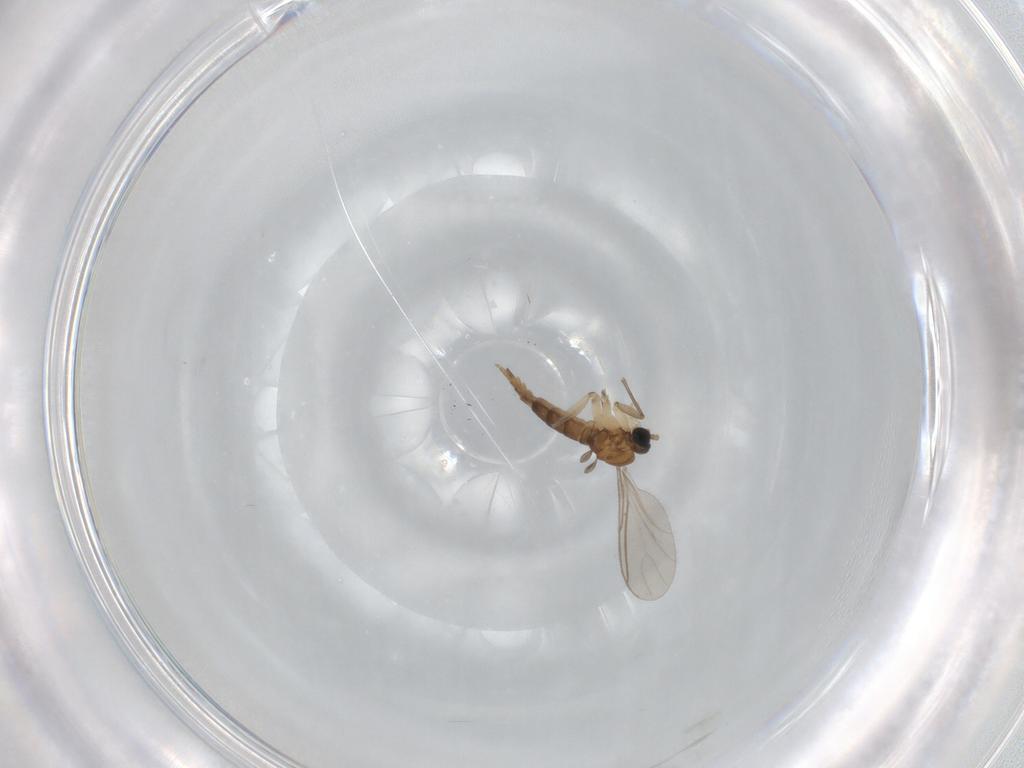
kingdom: Animalia
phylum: Arthropoda
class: Insecta
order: Diptera
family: Sciaridae
